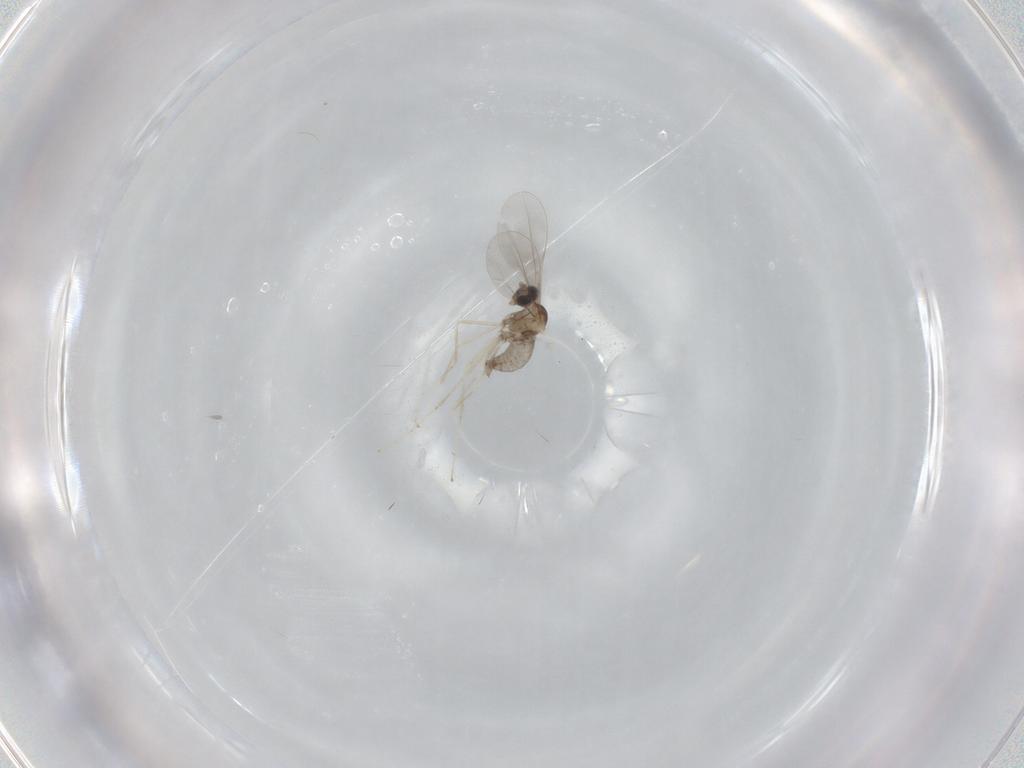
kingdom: Animalia
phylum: Arthropoda
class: Insecta
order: Diptera
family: Cecidomyiidae
